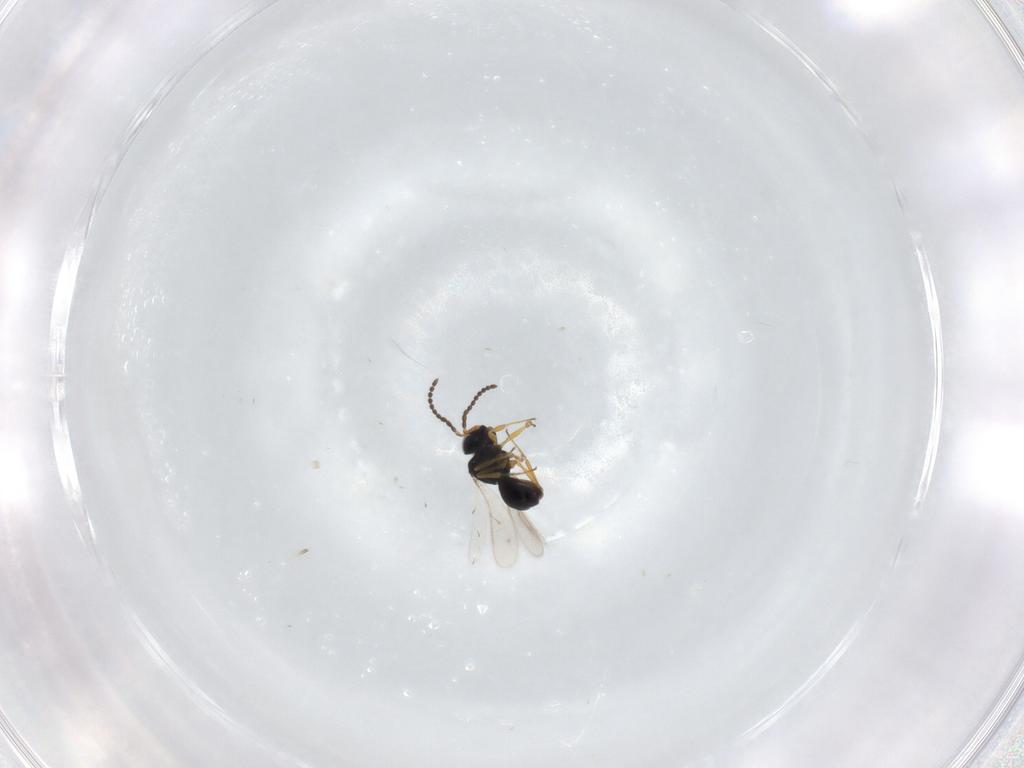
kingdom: Animalia
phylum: Arthropoda
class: Insecta
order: Hymenoptera
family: Scelionidae
